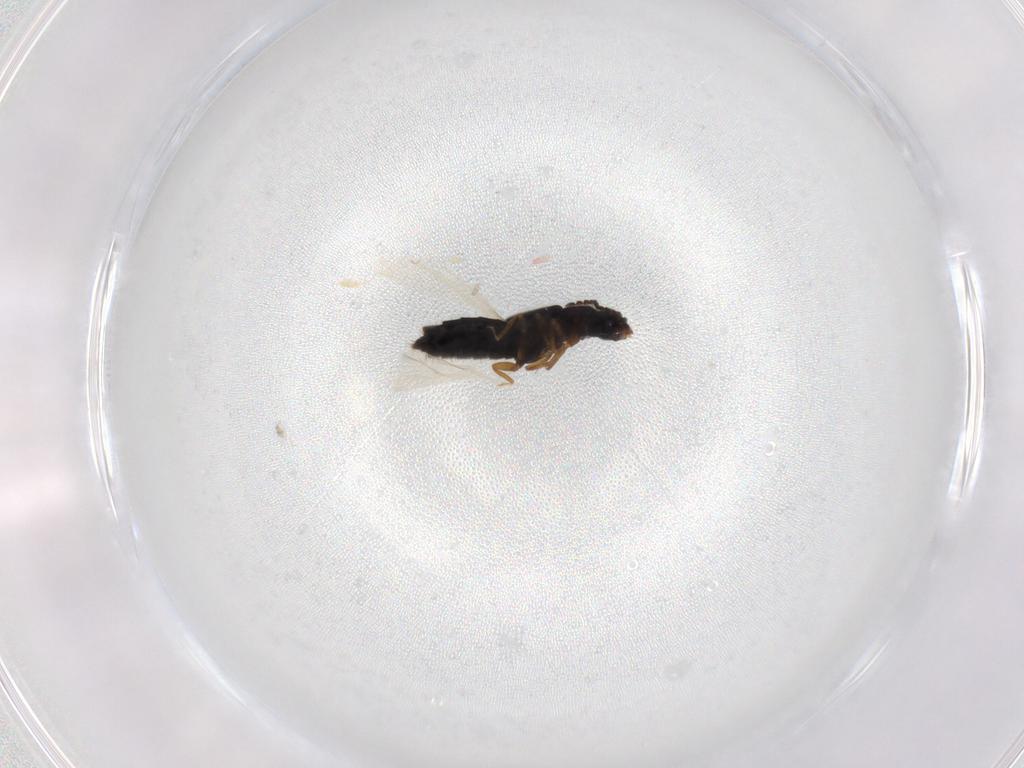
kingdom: Animalia
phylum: Arthropoda
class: Insecta
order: Coleoptera
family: Staphylinidae
